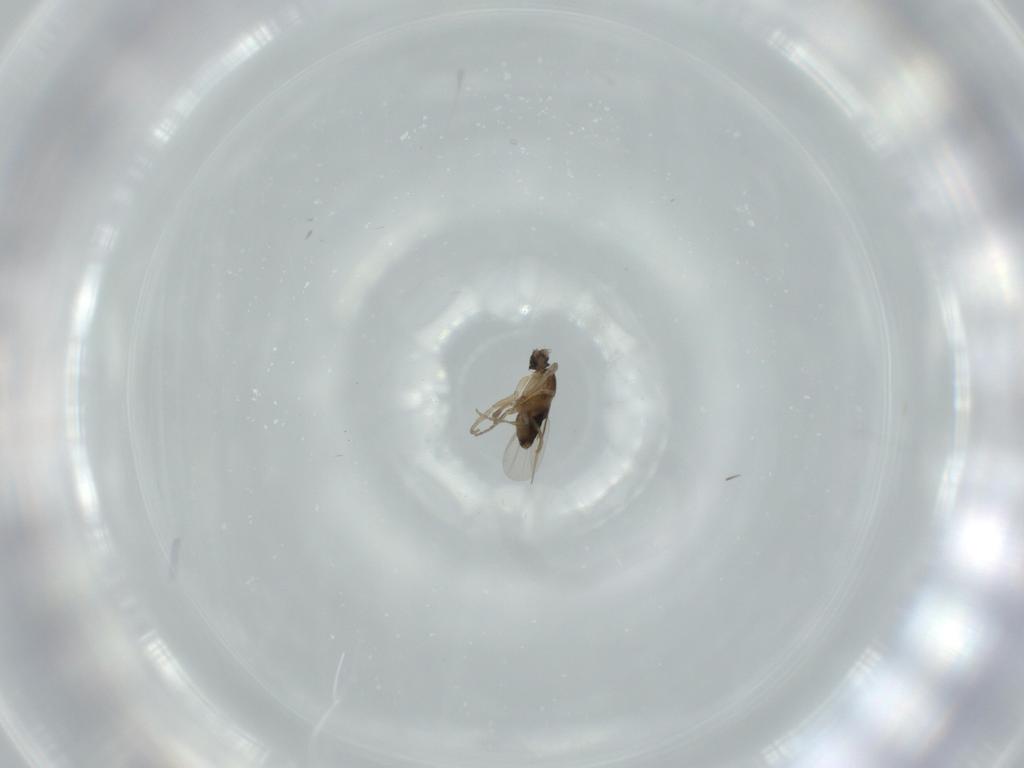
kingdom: Animalia
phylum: Arthropoda
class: Insecta
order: Diptera
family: Phoridae
